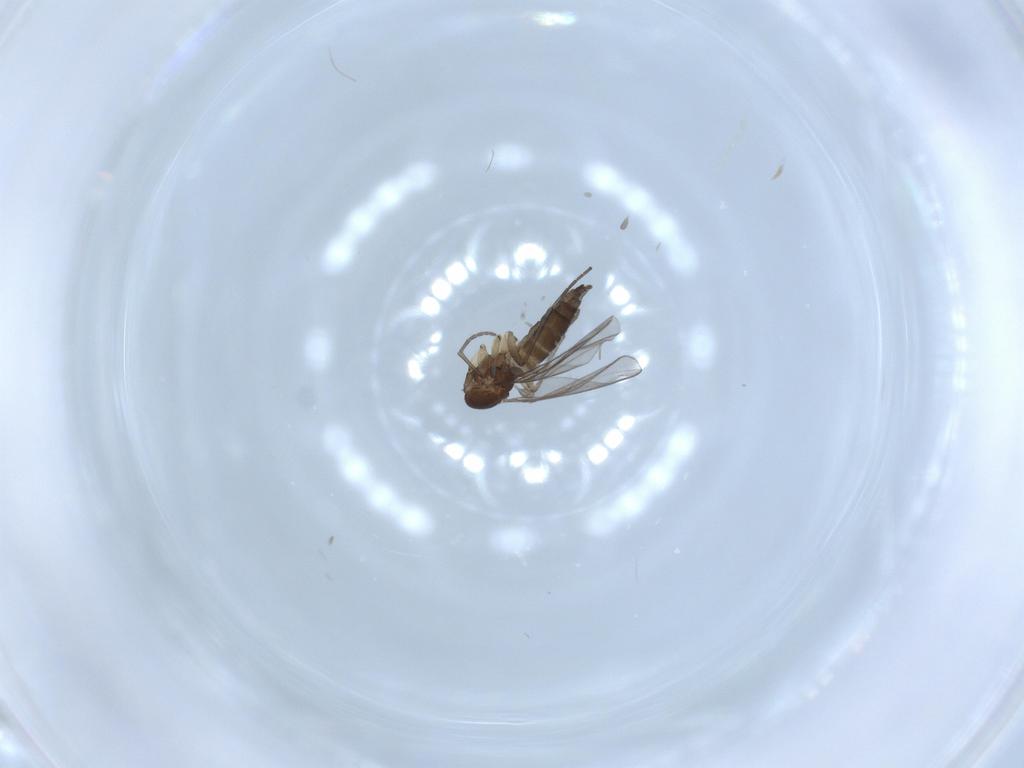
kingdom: Animalia
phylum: Arthropoda
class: Insecta
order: Diptera
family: Sciaridae
